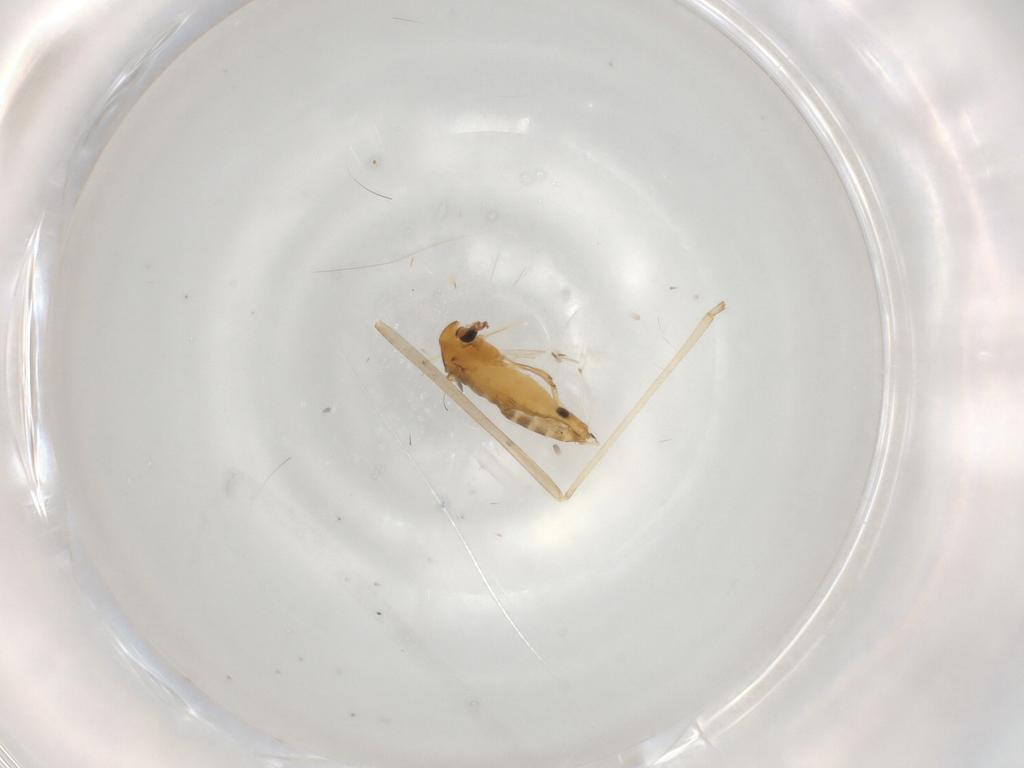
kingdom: Animalia
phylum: Arthropoda
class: Insecta
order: Diptera
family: Chironomidae
